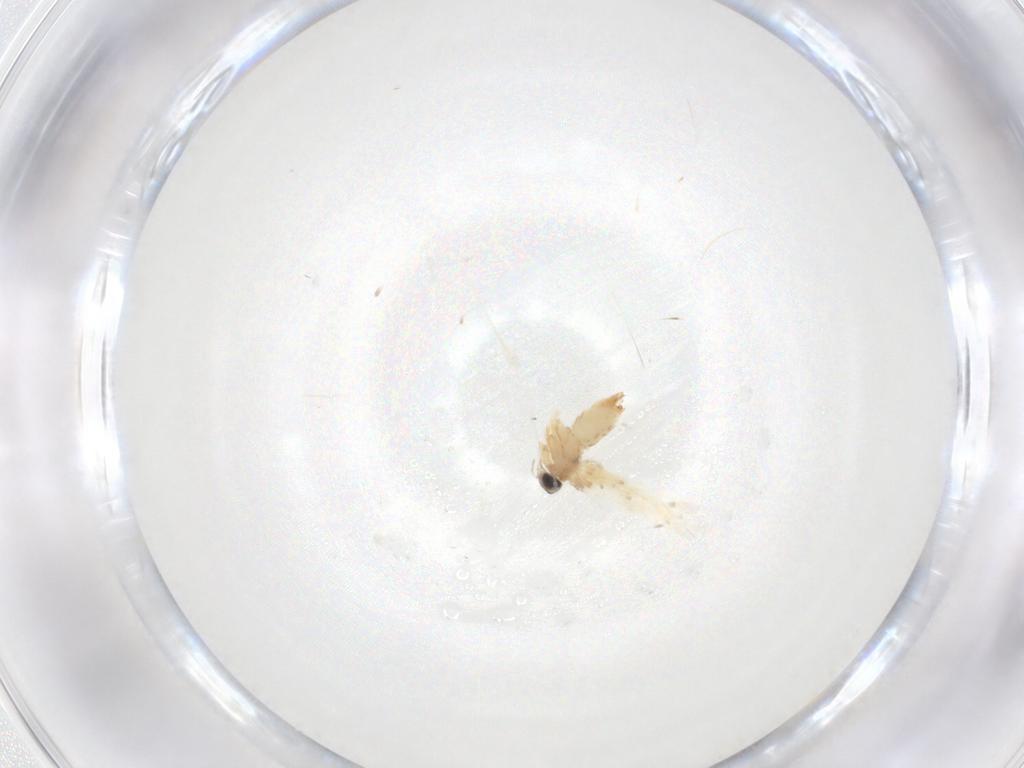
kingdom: Animalia
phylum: Arthropoda
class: Insecta
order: Lepidoptera
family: Crambidae
